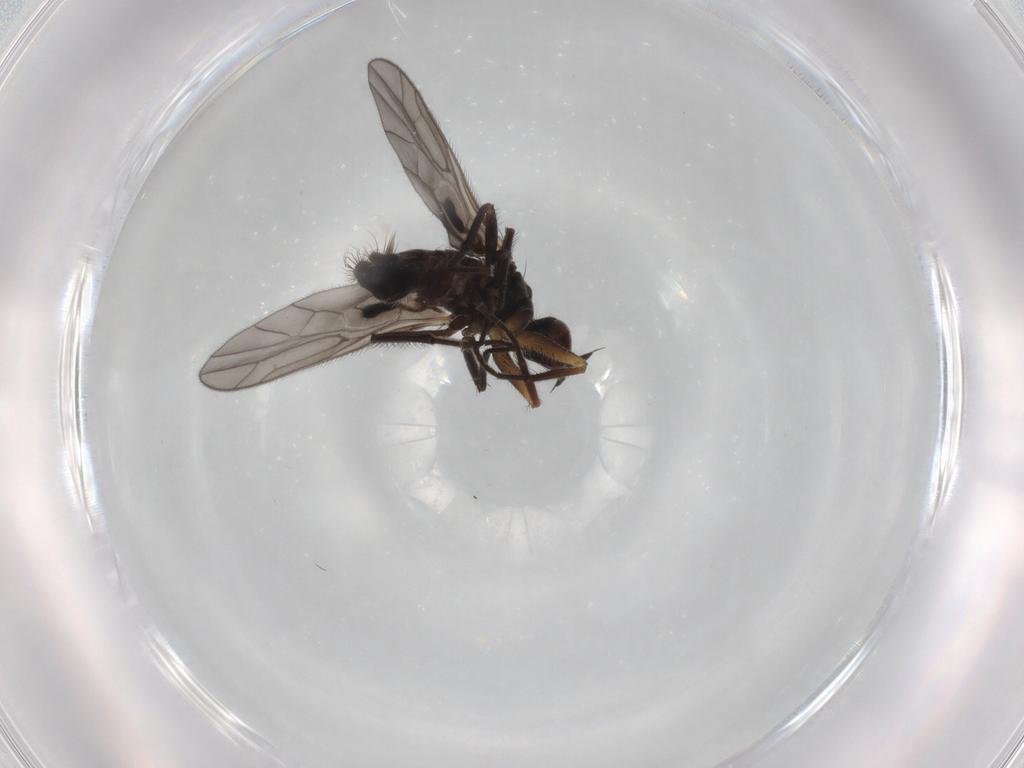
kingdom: Animalia
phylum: Arthropoda
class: Insecta
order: Diptera
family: Empididae
